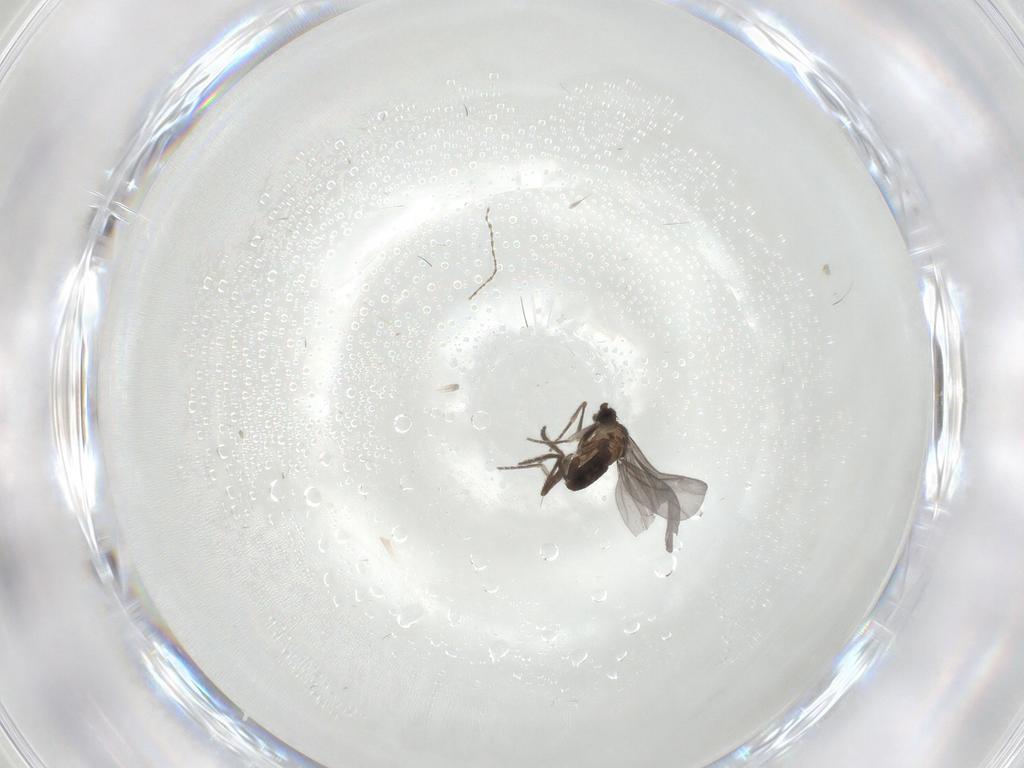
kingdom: Animalia
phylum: Arthropoda
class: Insecta
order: Diptera
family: Phoridae
